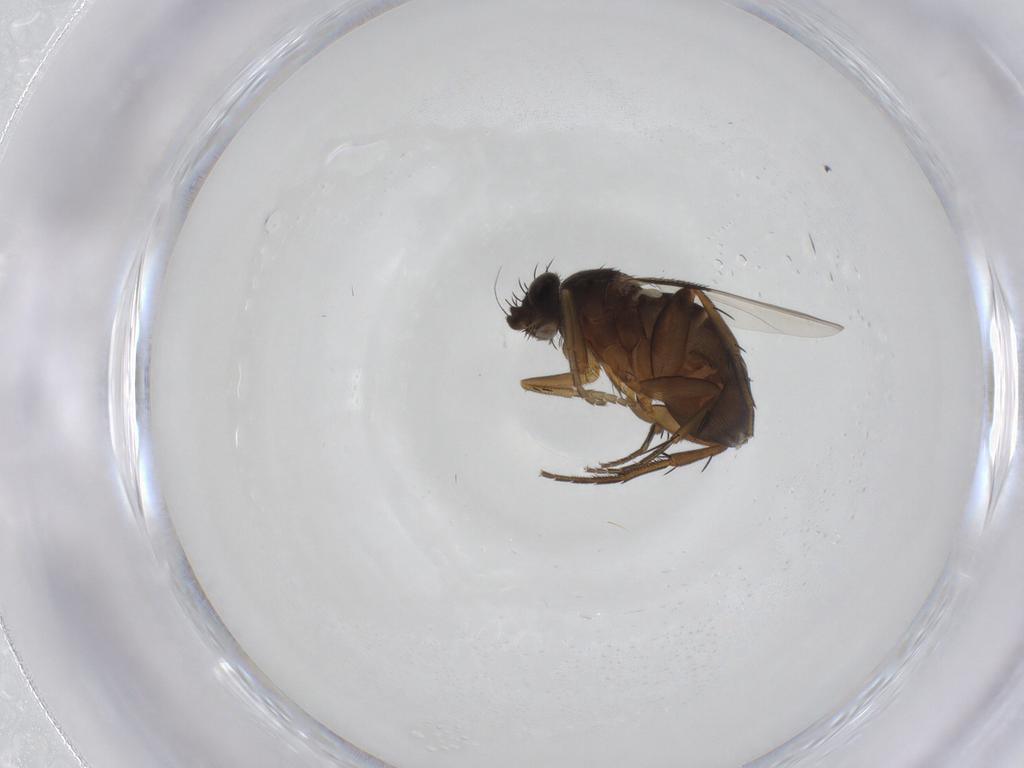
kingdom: Animalia
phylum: Arthropoda
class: Insecta
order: Diptera
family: Phoridae
